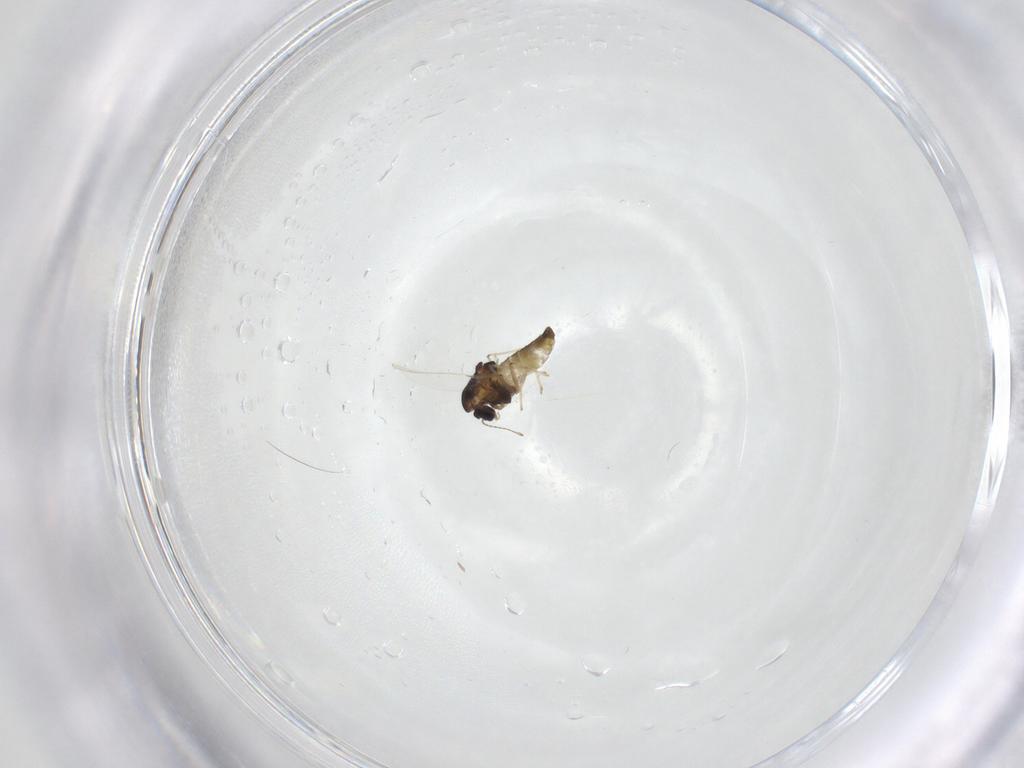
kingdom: Animalia
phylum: Arthropoda
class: Insecta
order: Diptera
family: Chironomidae
